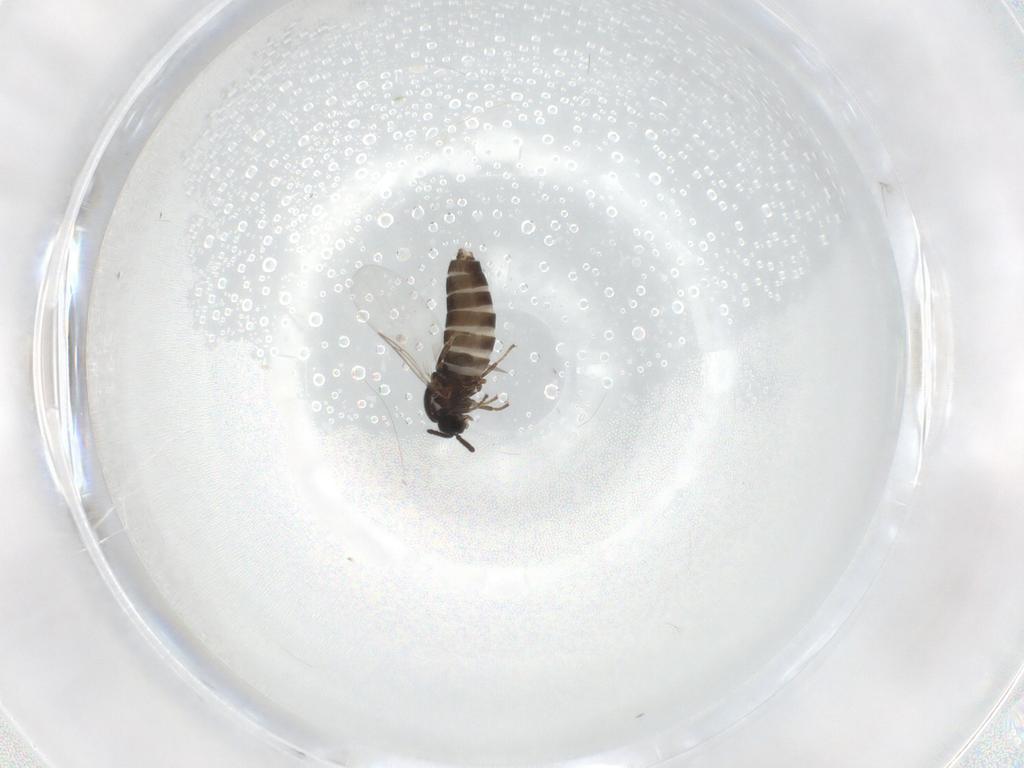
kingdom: Animalia
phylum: Arthropoda
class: Insecta
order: Diptera
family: Scatopsidae
